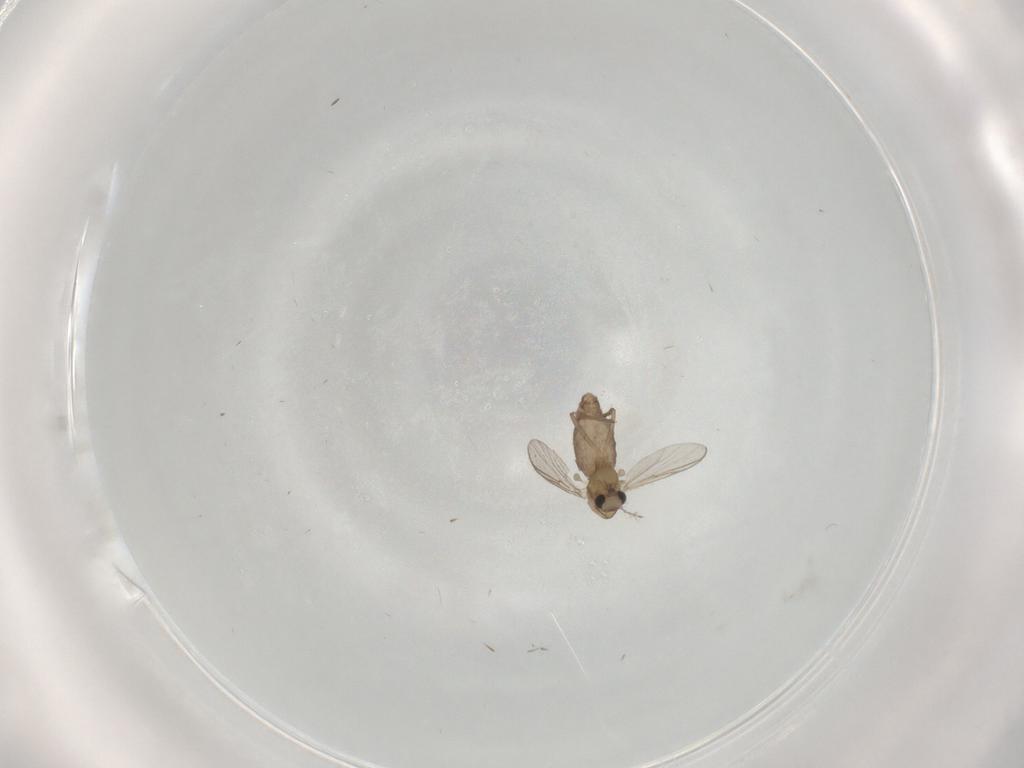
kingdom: Animalia
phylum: Arthropoda
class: Insecta
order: Diptera
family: Chironomidae
